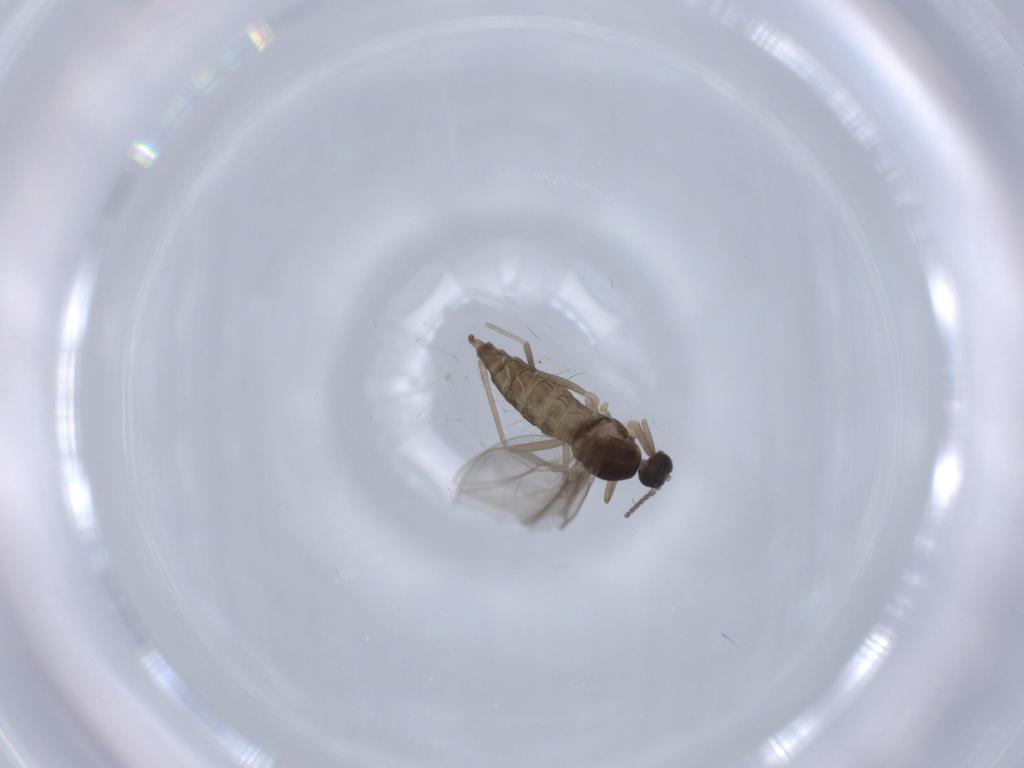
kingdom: Animalia
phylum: Arthropoda
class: Insecta
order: Diptera
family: Cecidomyiidae
